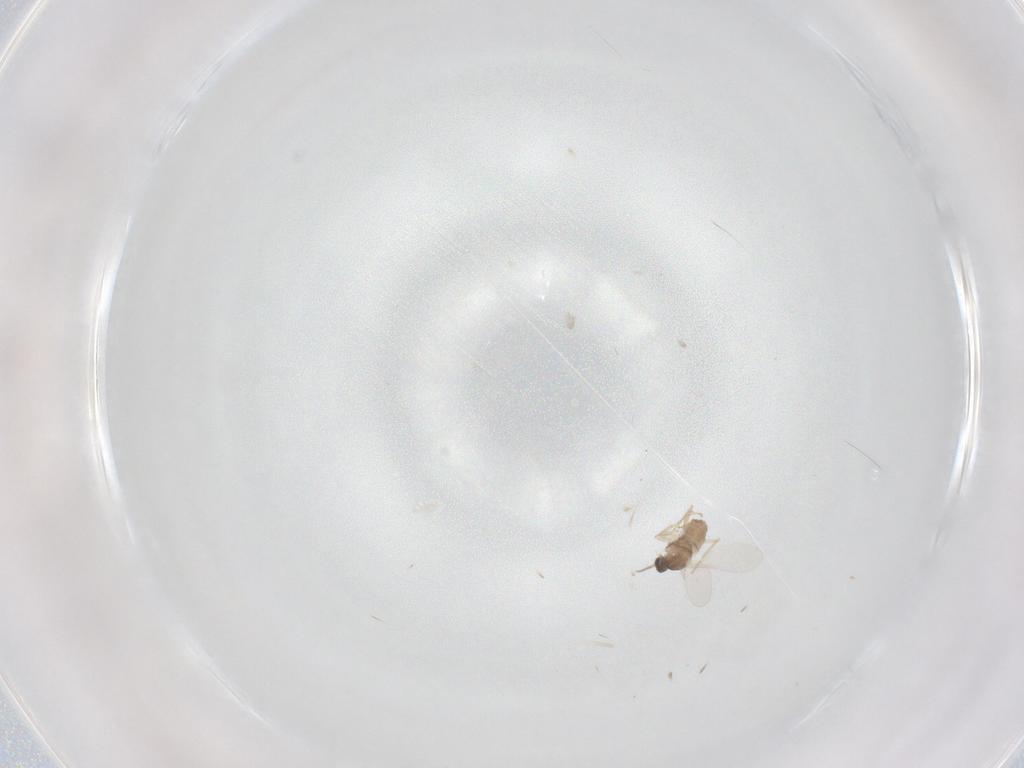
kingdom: Animalia
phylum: Arthropoda
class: Insecta
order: Diptera
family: Cecidomyiidae
